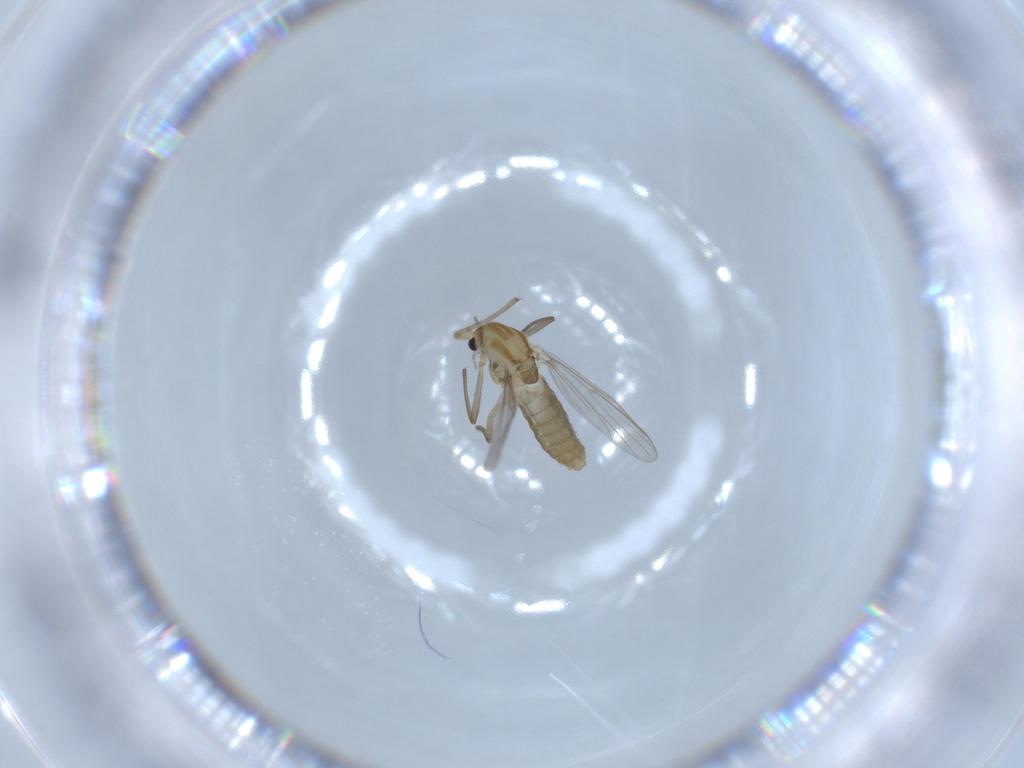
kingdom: Animalia
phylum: Arthropoda
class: Insecta
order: Diptera
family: Chironomidae
